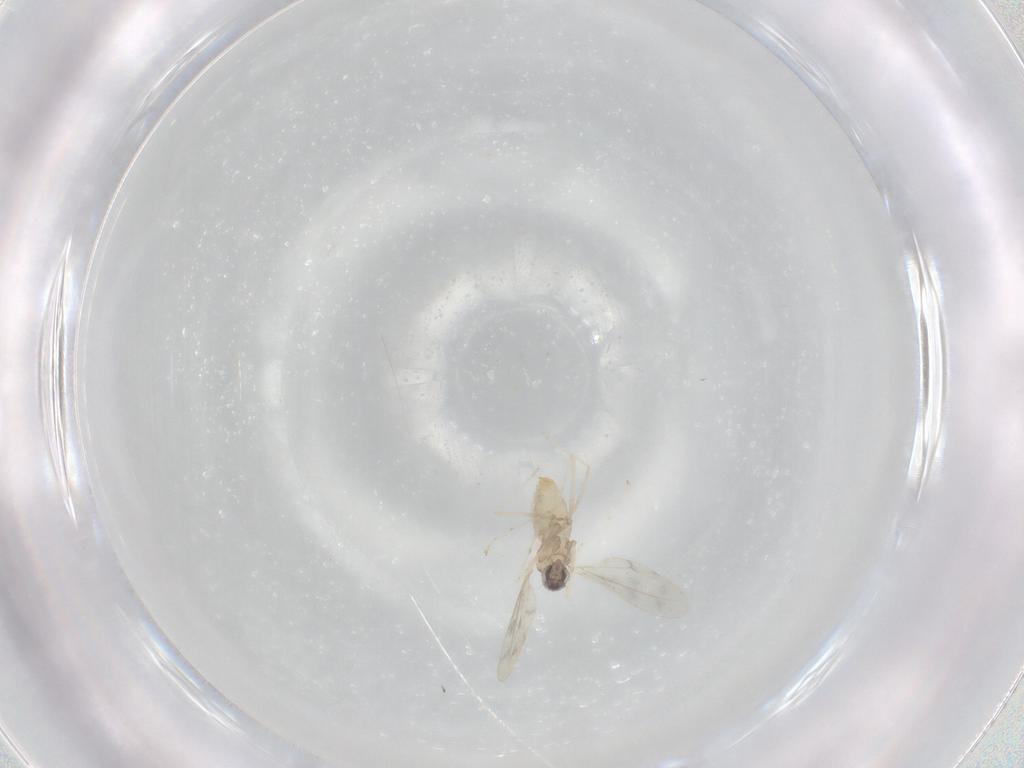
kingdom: Animalia
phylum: Arthropoda
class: Insecta
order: Diptera
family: Cecidomyiidae
